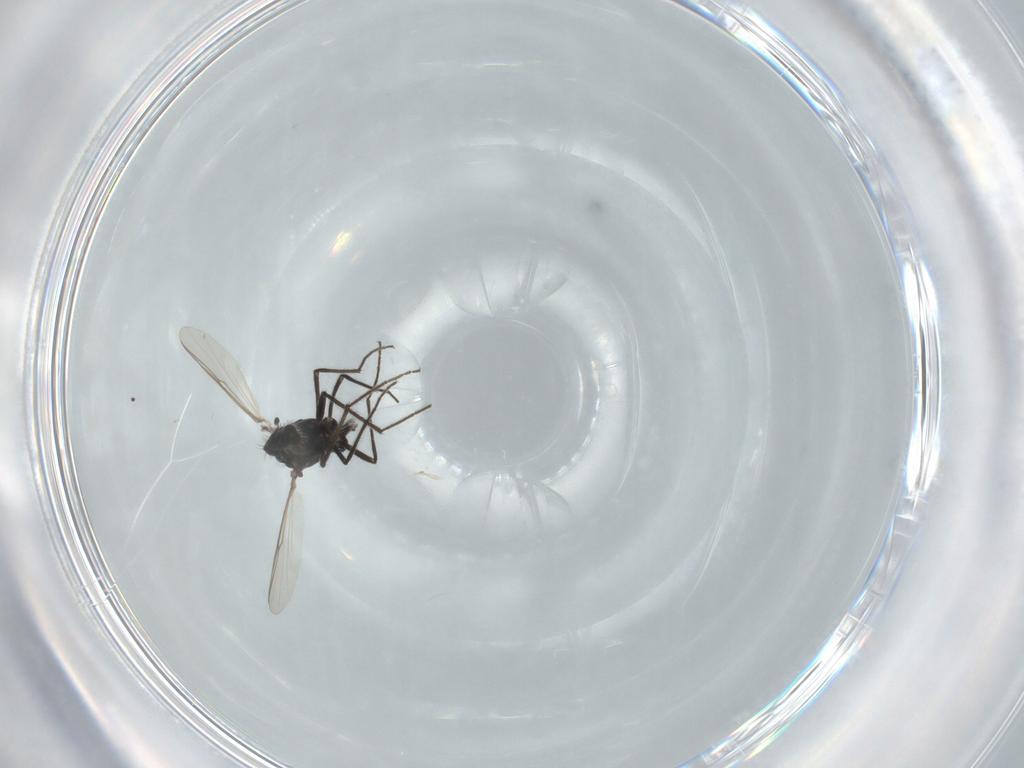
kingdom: Animalia
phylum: Arthropoda
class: Insecta
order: Diptera
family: Chironomidae
